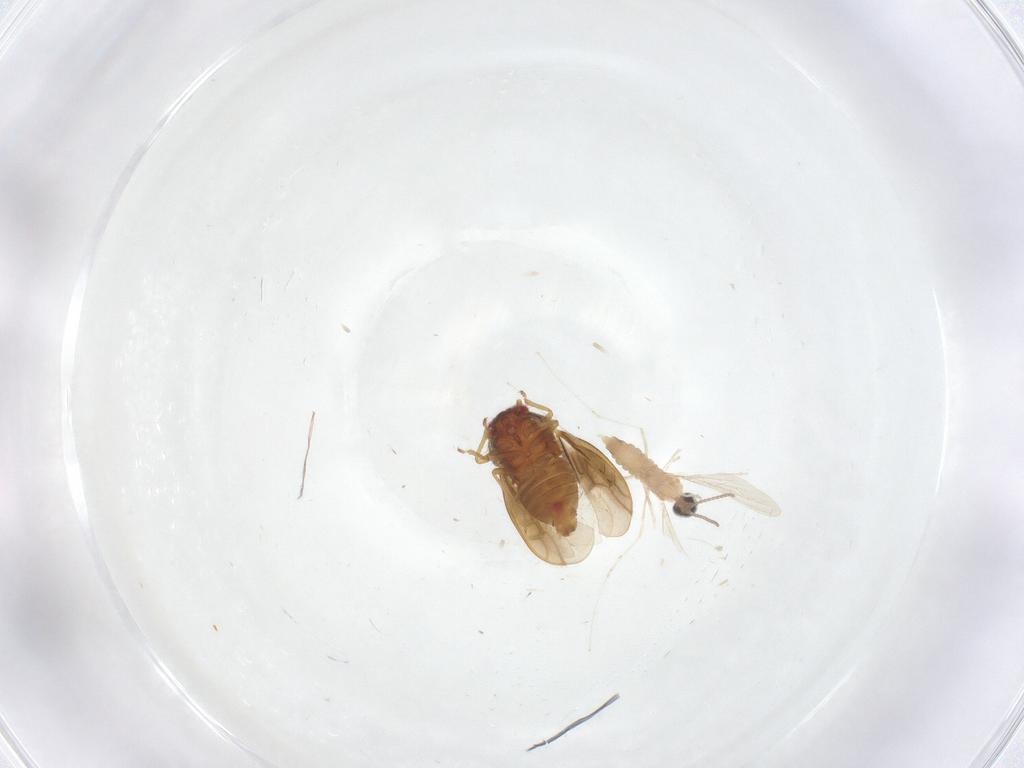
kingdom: Animalia
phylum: Arthropoda
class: Insecta
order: Diptera
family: Cecidomyiidae
